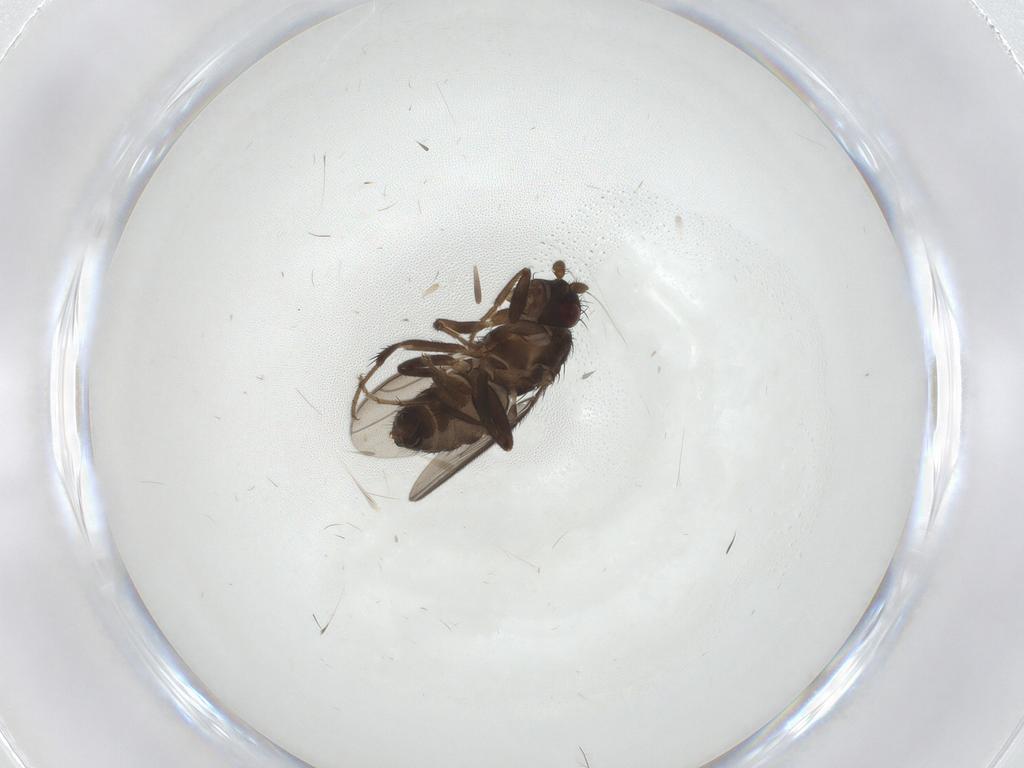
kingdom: Animalia
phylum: Arthropoda
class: Insecta
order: Diptera
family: Sphaeroceridae
